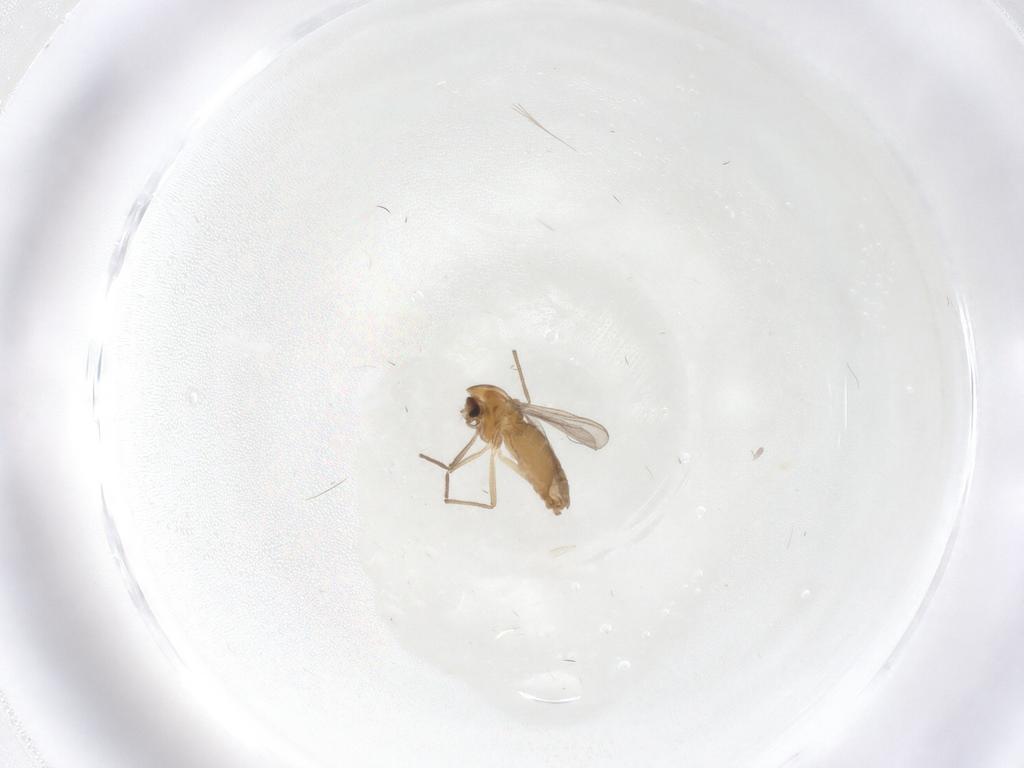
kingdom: Animalia
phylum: Arthropoda
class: Insecta
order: Diptera
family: Chironomidae
